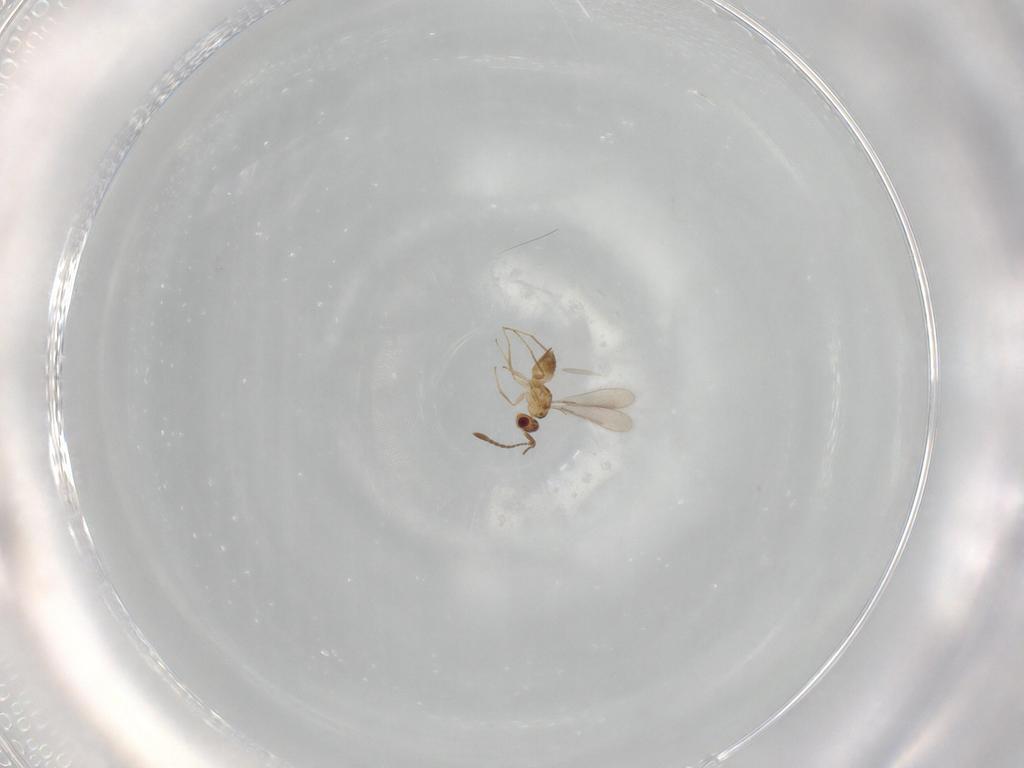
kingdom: Animalia
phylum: Arthropoda
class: Insecta
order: Hymenoptera
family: Mymaridae
